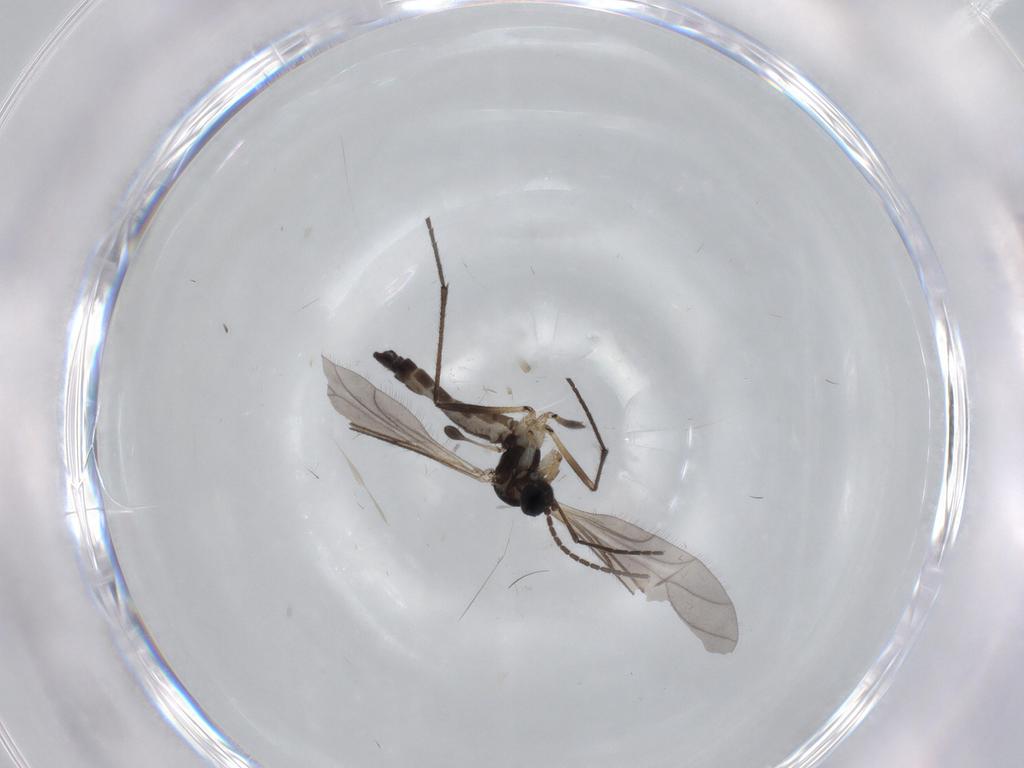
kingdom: Animalia
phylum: Arthropoda
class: Insecta
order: Diptera
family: Sciaridae
